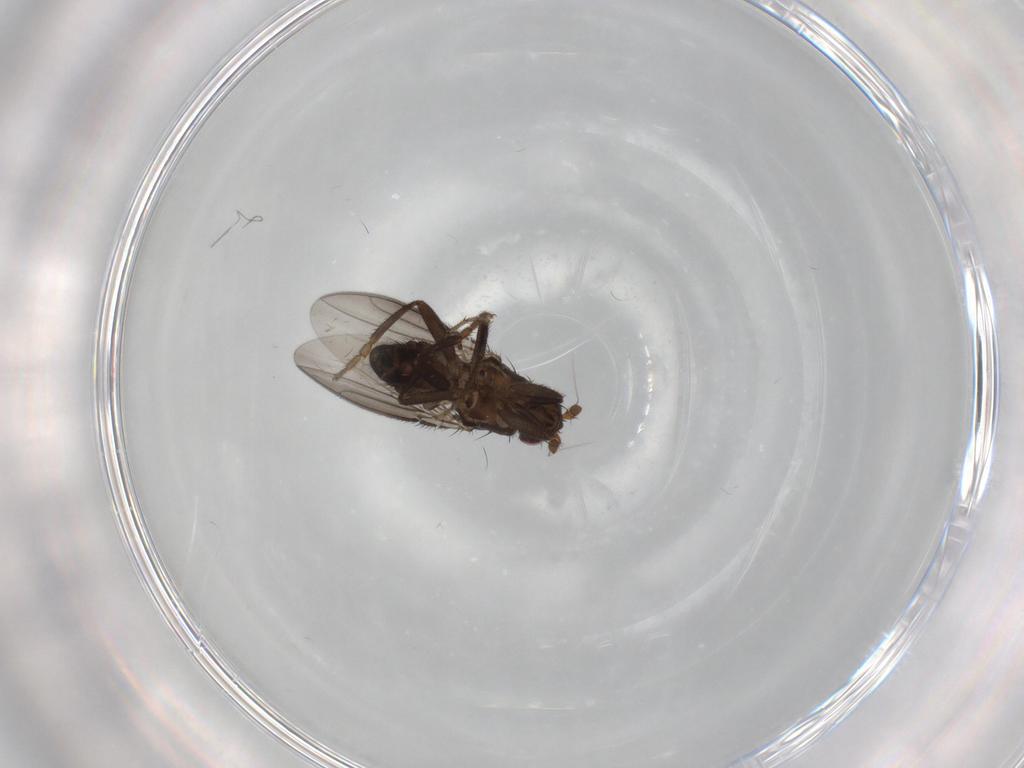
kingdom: Animalia
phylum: Arthropoda
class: Insecta
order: Diptera
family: Sphaeroceridae
